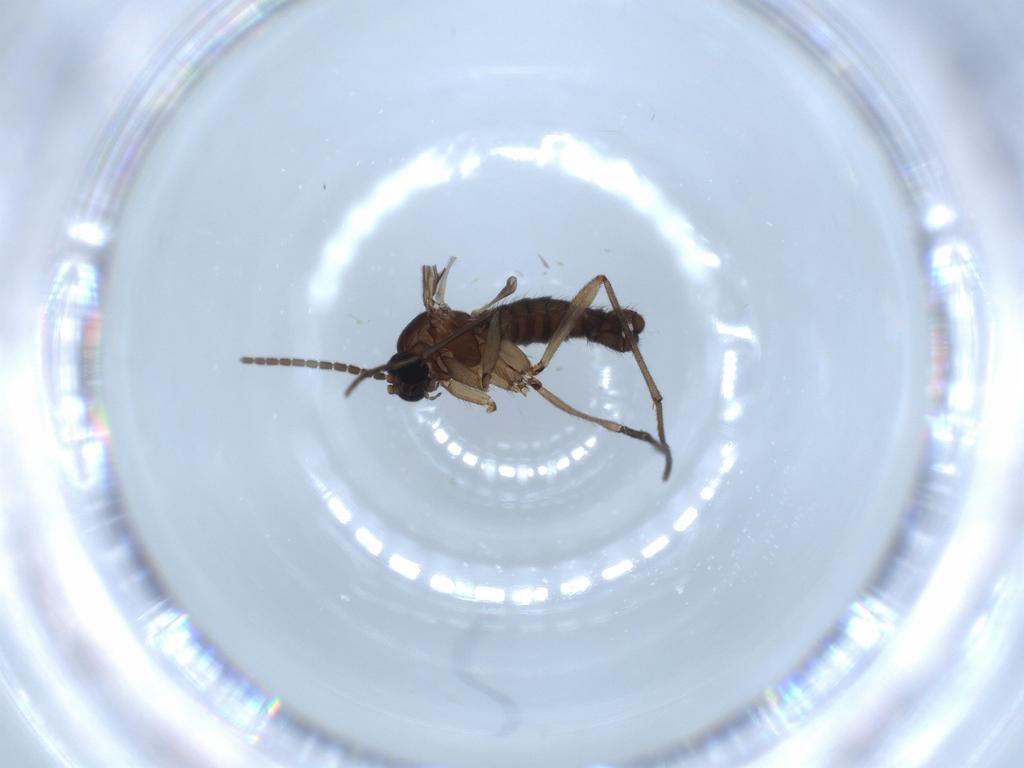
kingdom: Animalia
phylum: Arthropoda
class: Insecta
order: Diptera
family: Sciaridae
